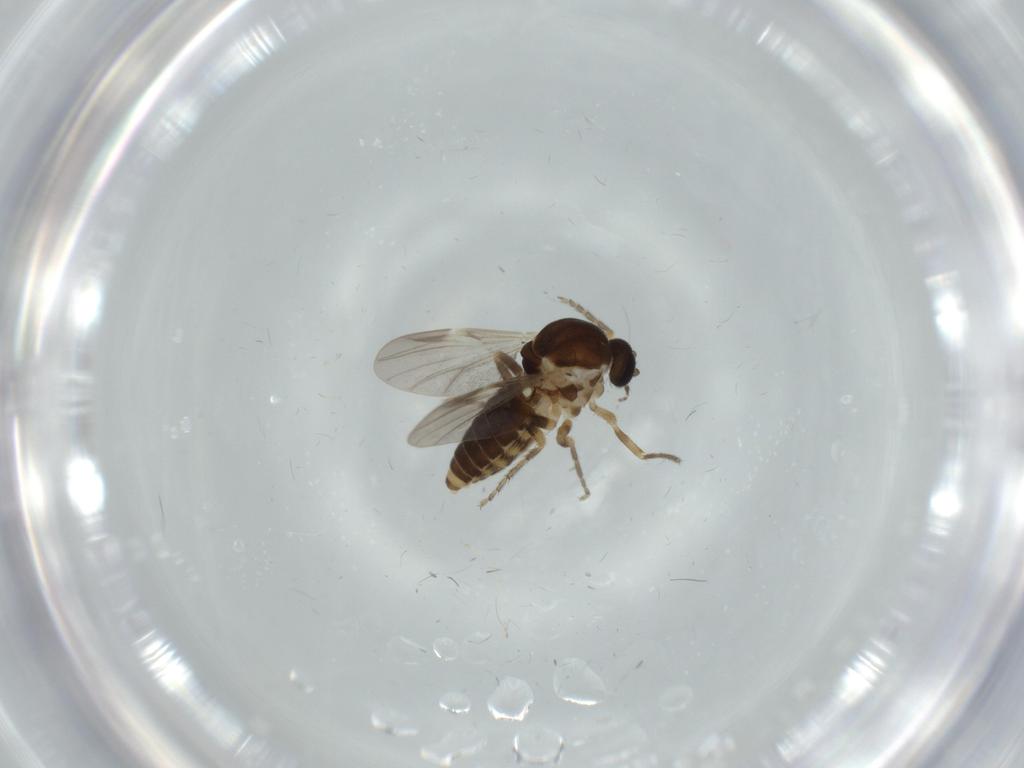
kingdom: Animalia
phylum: Arthropoda
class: Insecta
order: Diptera
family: Ceratopogonidae
